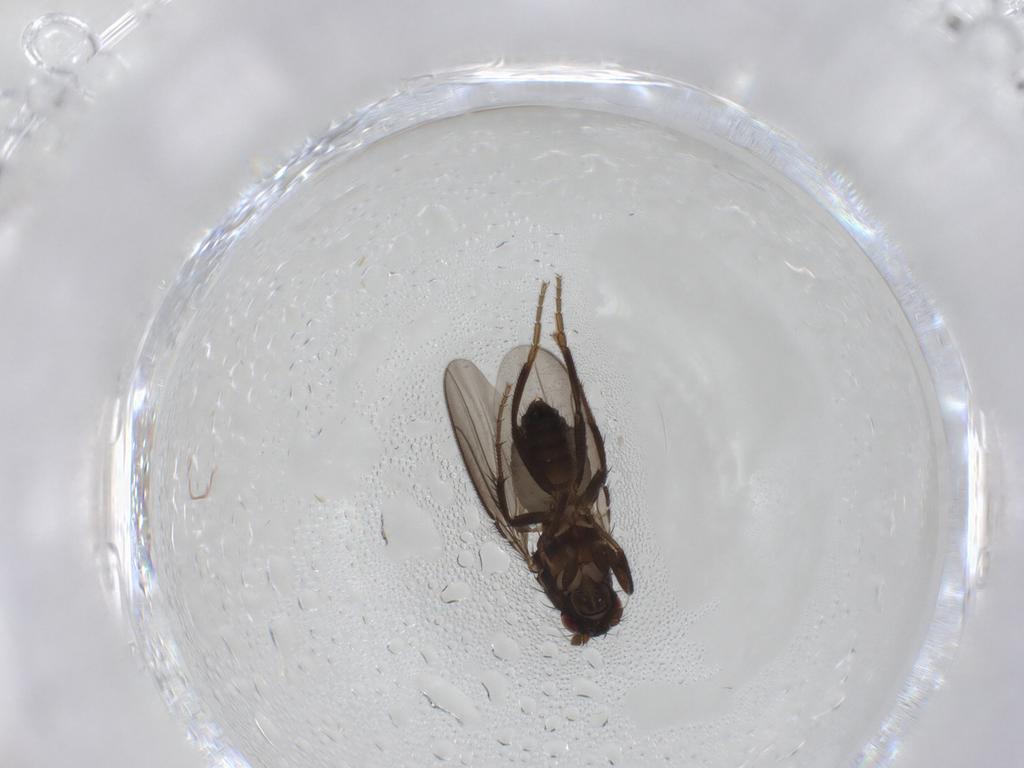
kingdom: Animalia
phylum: Arthropoda
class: Insecta
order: Diptera
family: Sphaeroceridae
